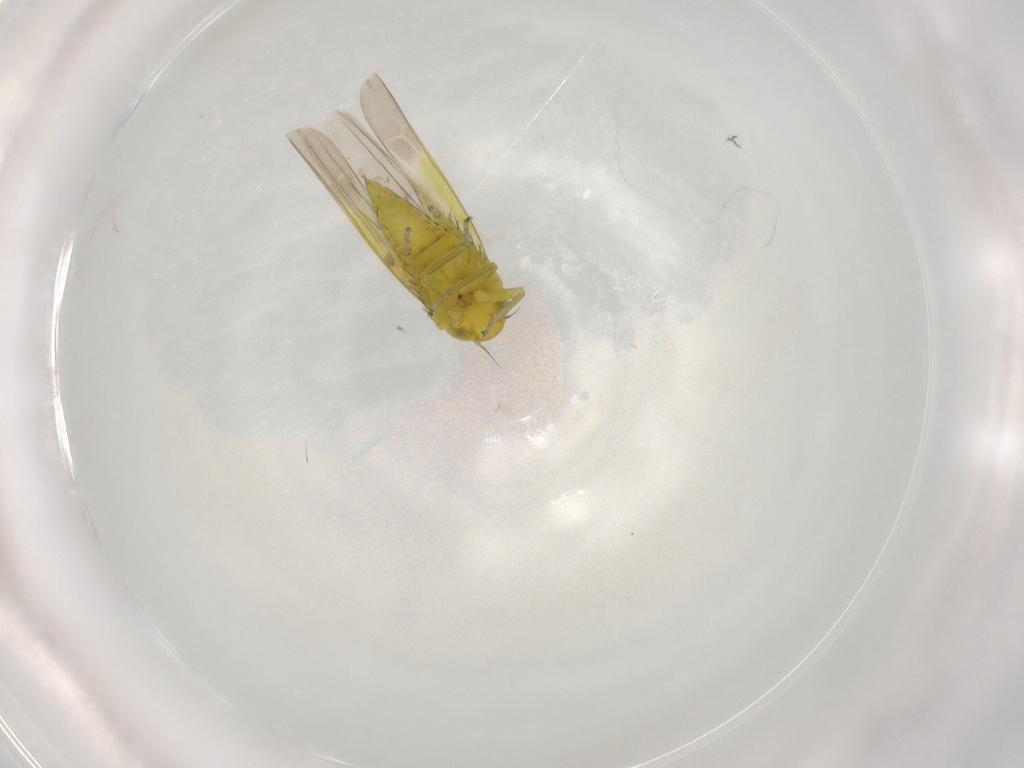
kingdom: Animalia
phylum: Arthropoda
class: Insecta
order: Hemiptera
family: Cicadellidae
